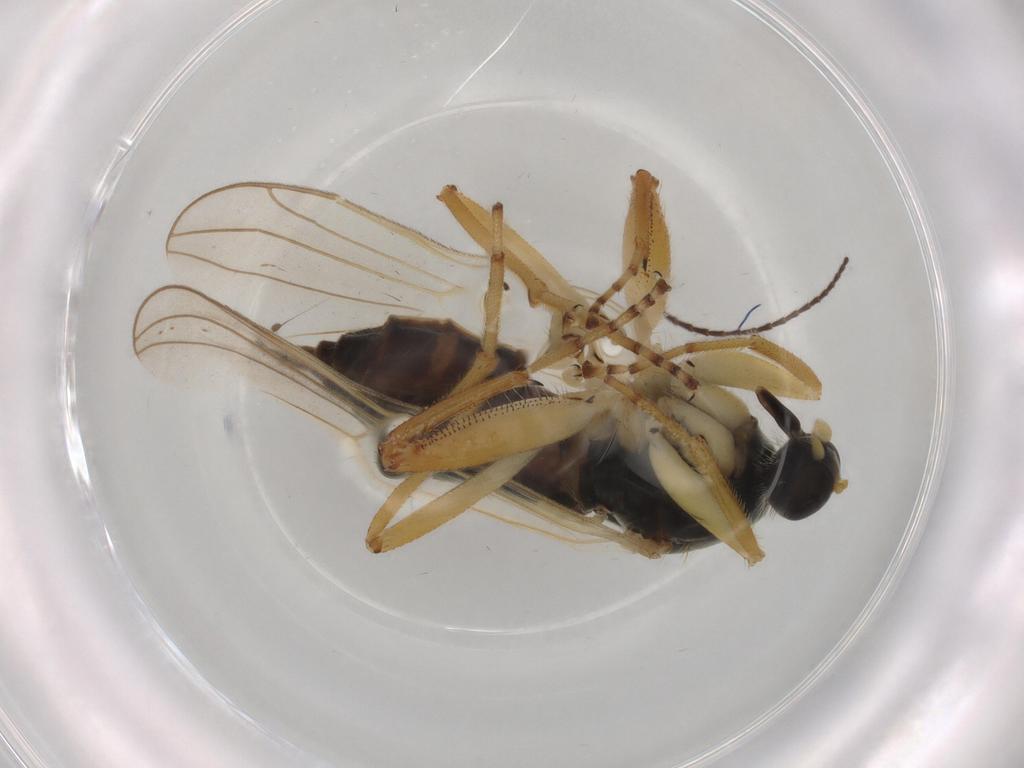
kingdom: Animalia
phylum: Arthropoda
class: Insecta
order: Diptera
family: Hybotidae
